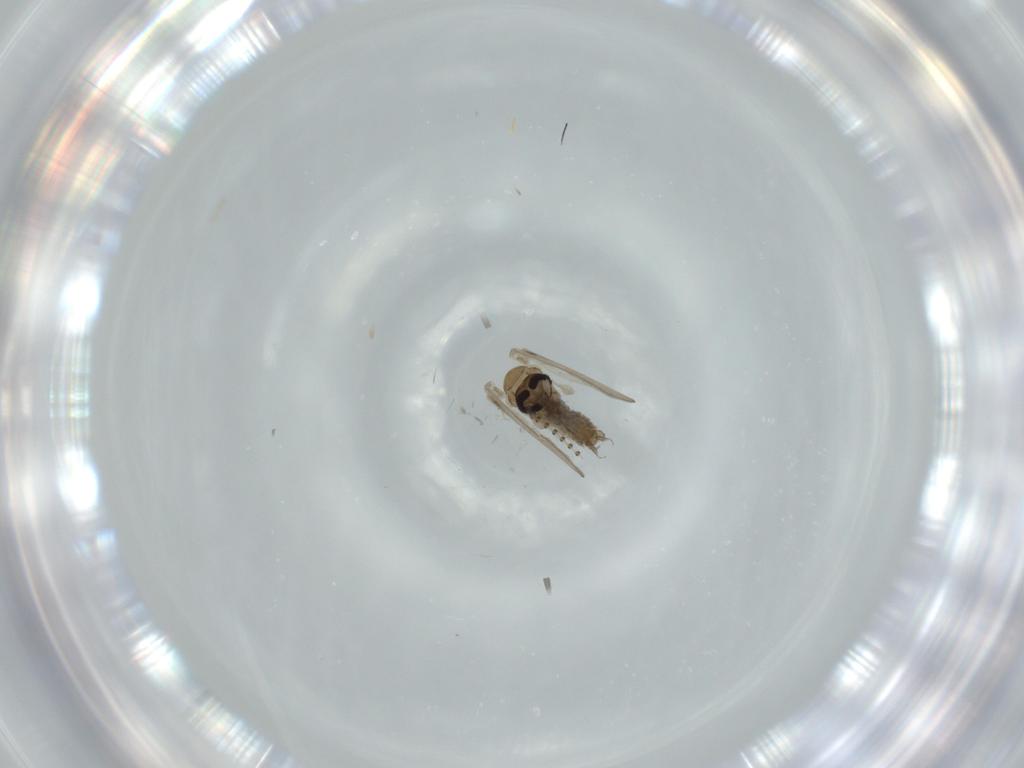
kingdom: Animalia
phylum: Arthropoda
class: Insecta
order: Diptera
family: Psychodidae
